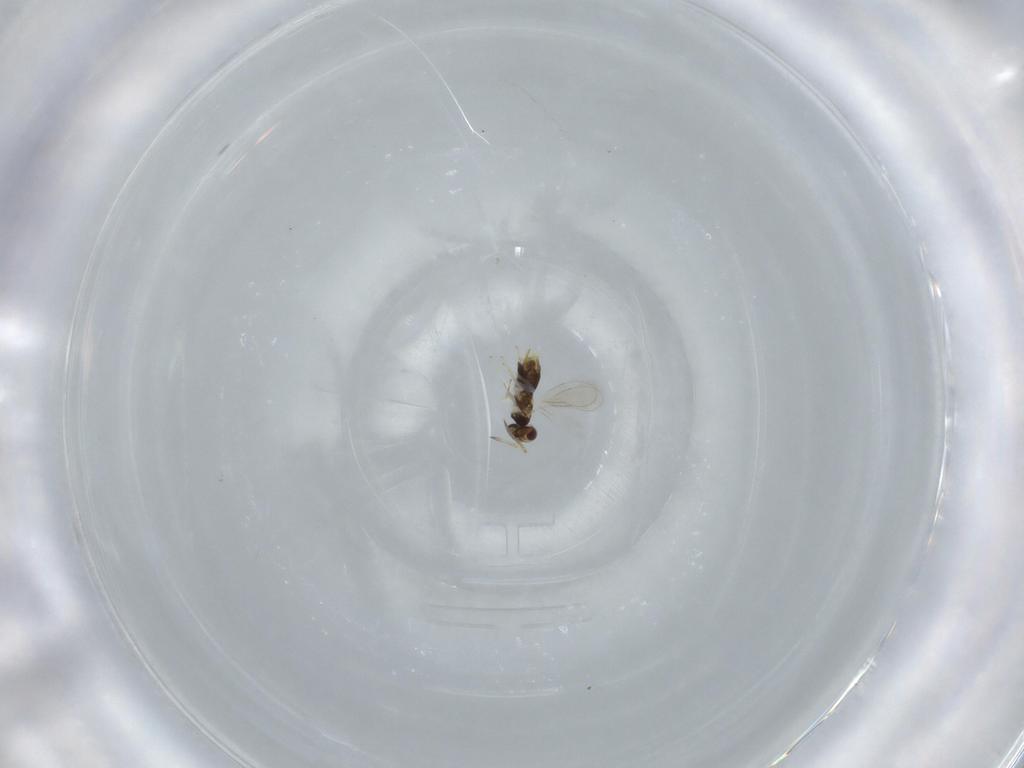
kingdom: Animalia
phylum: Arthropoda
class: Insecta
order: Hymenoptera
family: Aphelinidae
